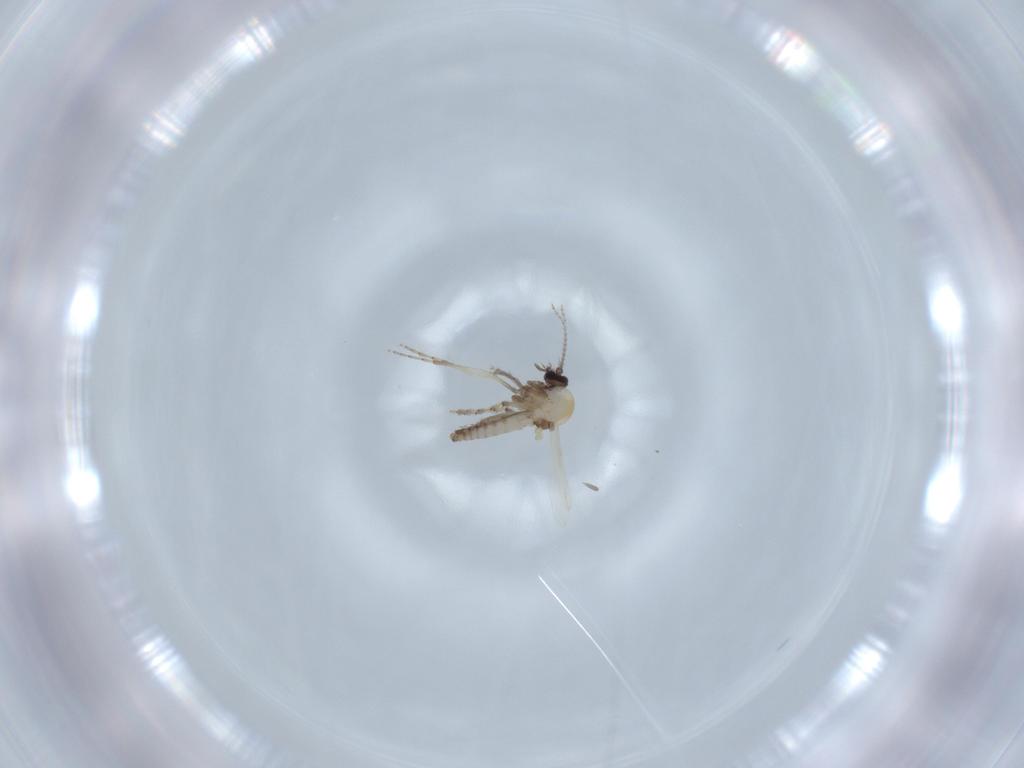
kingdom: Animalia
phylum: Arthropoda
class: Insecta
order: Diptera
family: Ceratopogonidae
